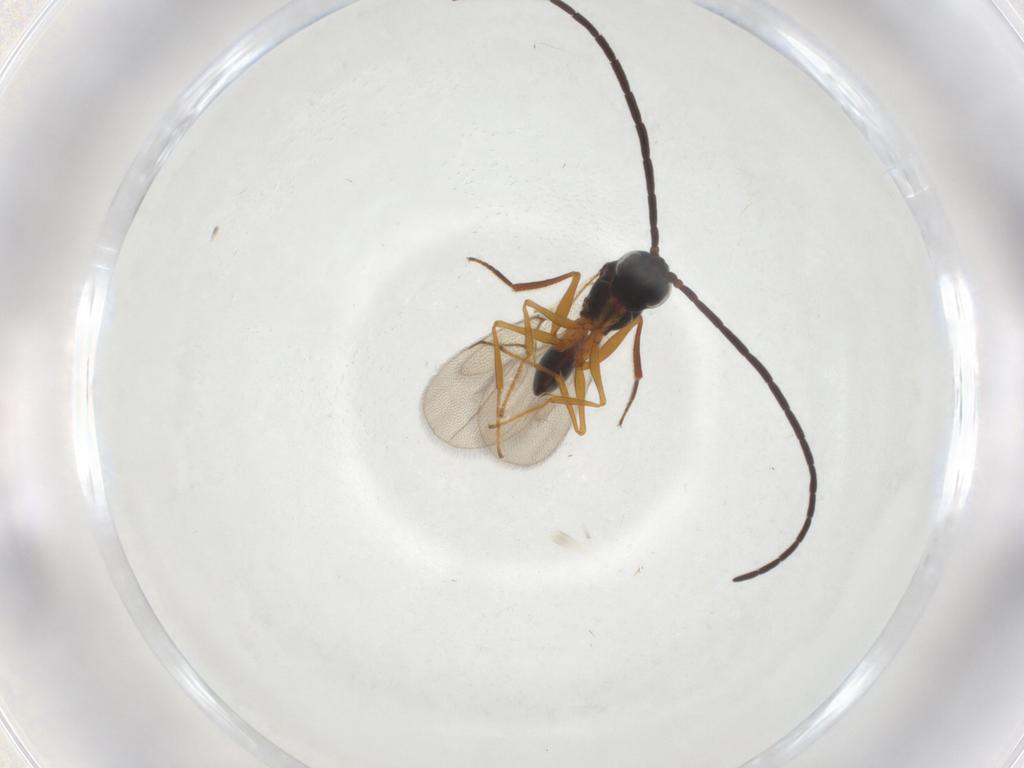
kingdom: Animalia
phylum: Arthropoda
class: Insecta
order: Hymenoptera
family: Figitidae
